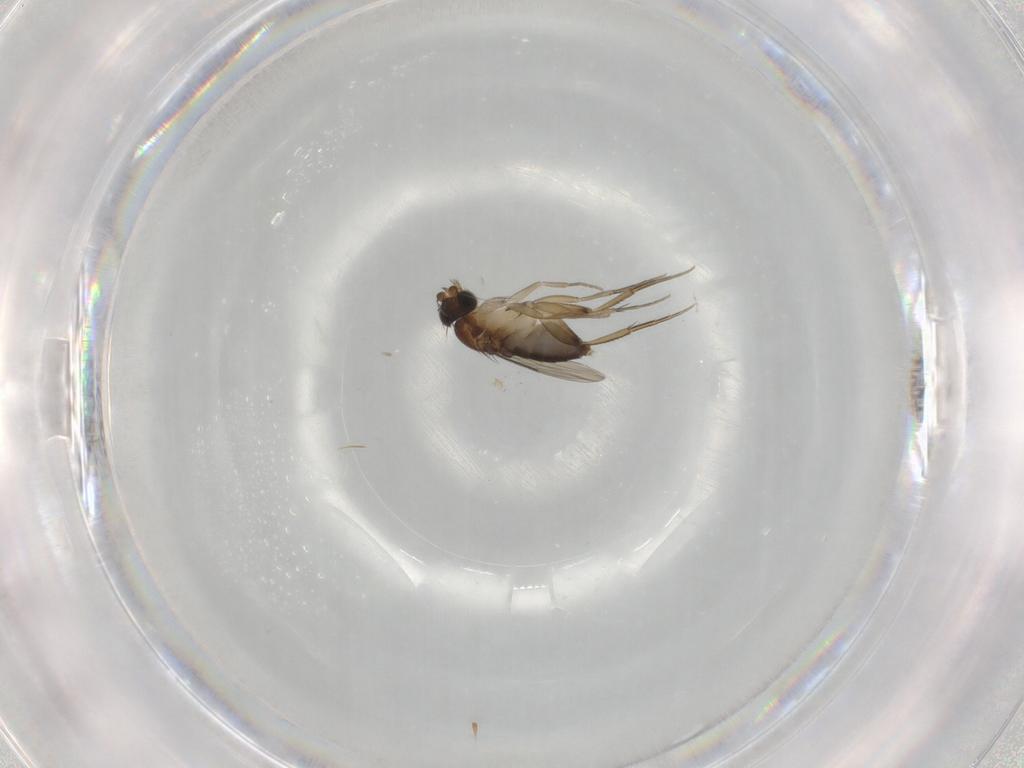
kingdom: Animalia
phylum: Arthropoda
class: Insecta
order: Diptera
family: Phoridae
